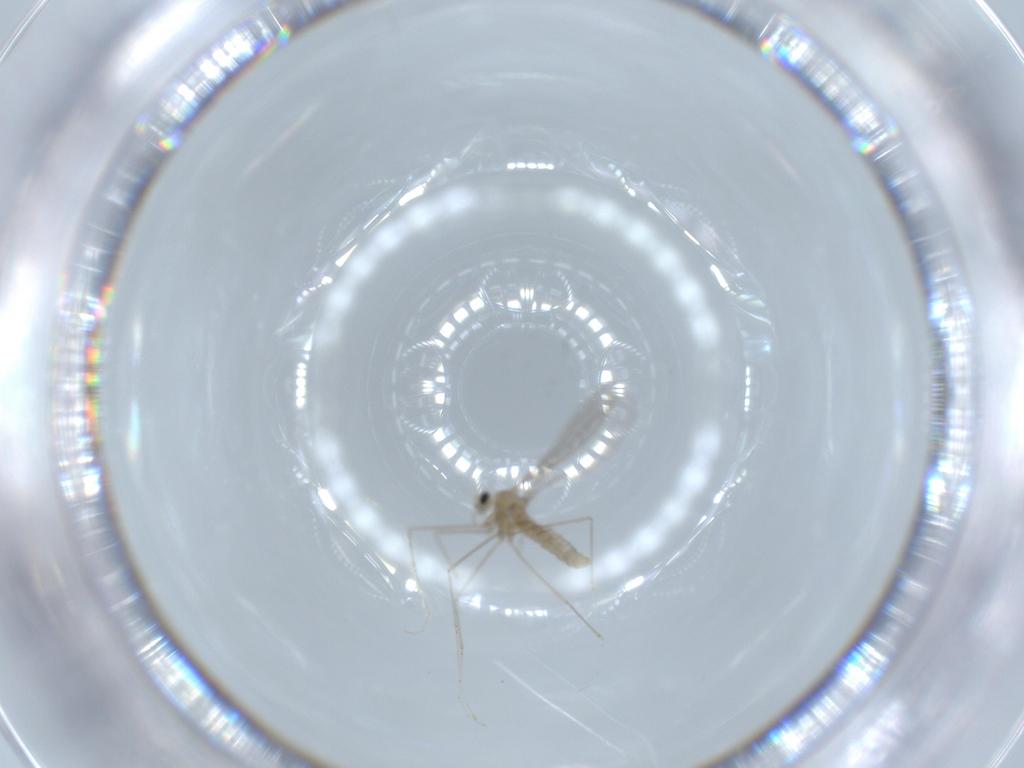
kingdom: Animalia
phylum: Arthropoda
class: Insecta
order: Diptera
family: Cecidomyiidae
